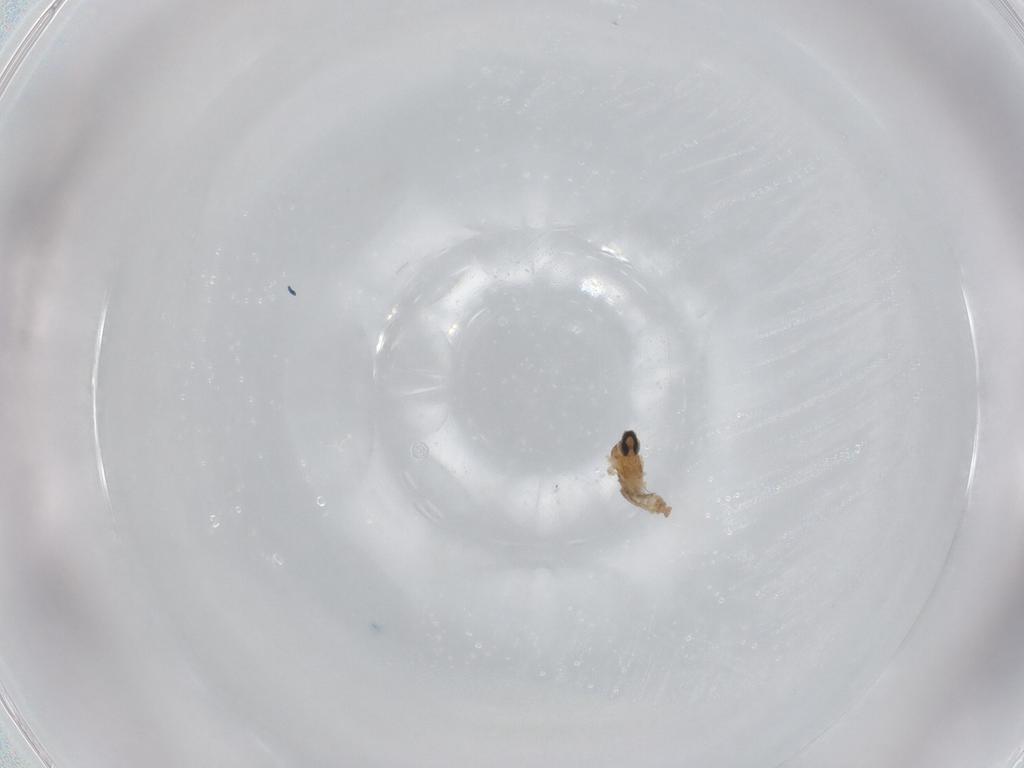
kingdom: Animalia
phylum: Arthropoda
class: Insecta
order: Diptera
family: Cecidomyiidae
